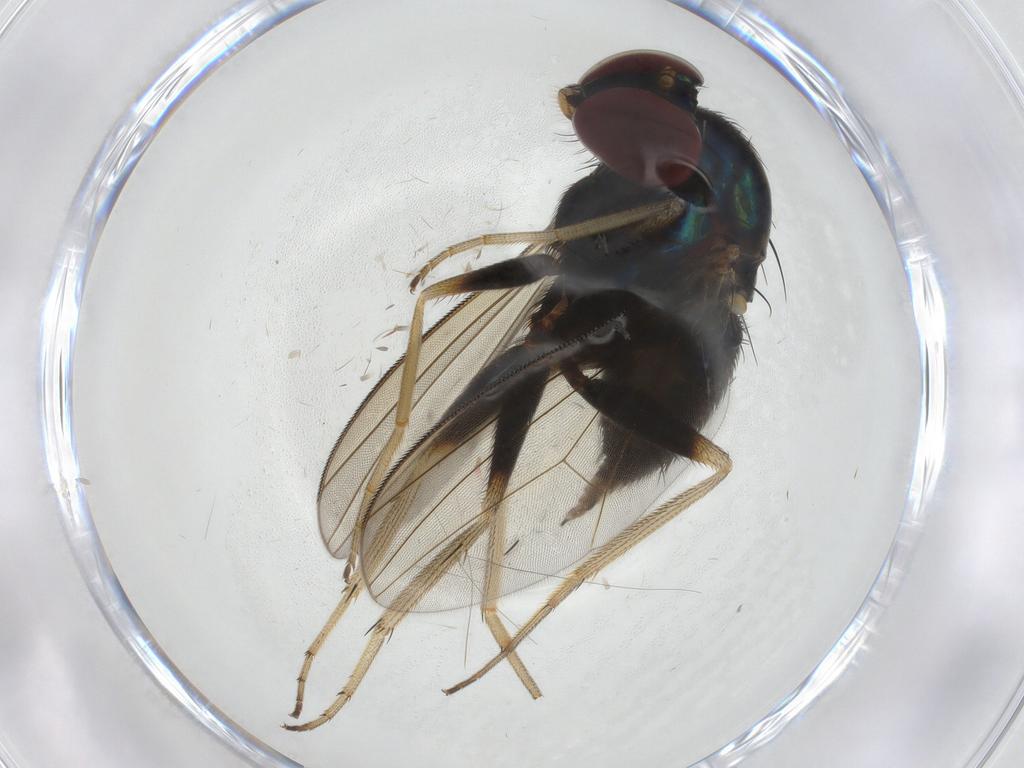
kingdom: Animalia
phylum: Arthropoda
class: Insecta
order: Diptera
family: Dolichopodidae
